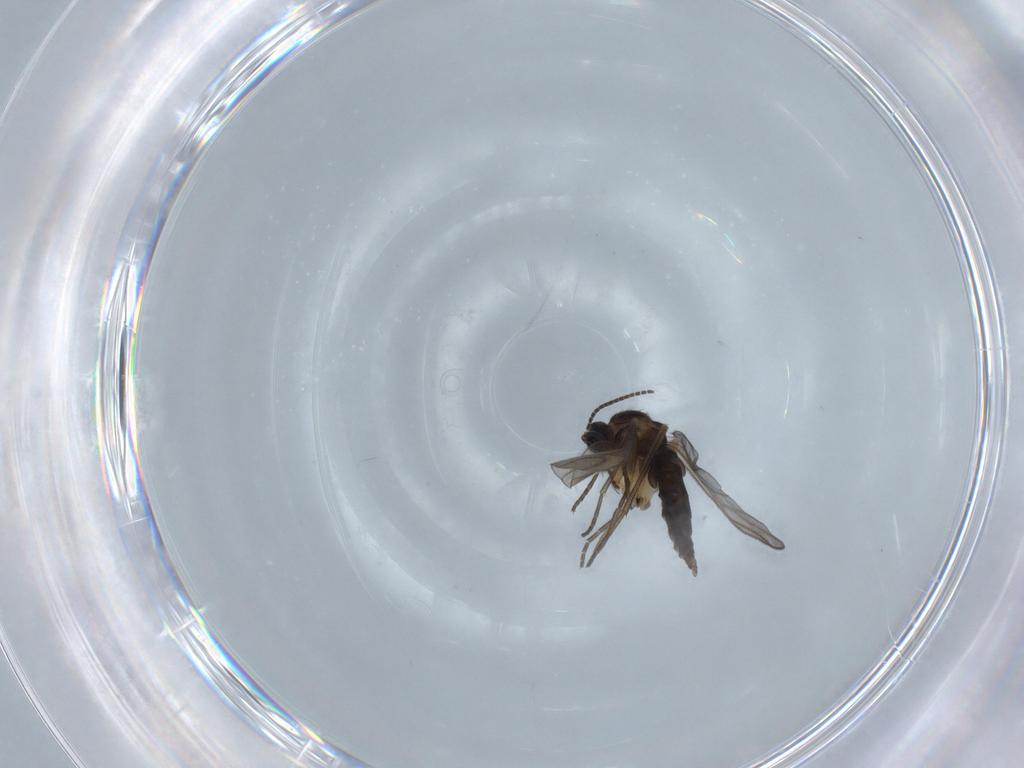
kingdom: Animalia
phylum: Arthropoda
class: Insecta
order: Diptera
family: Sciaridae
